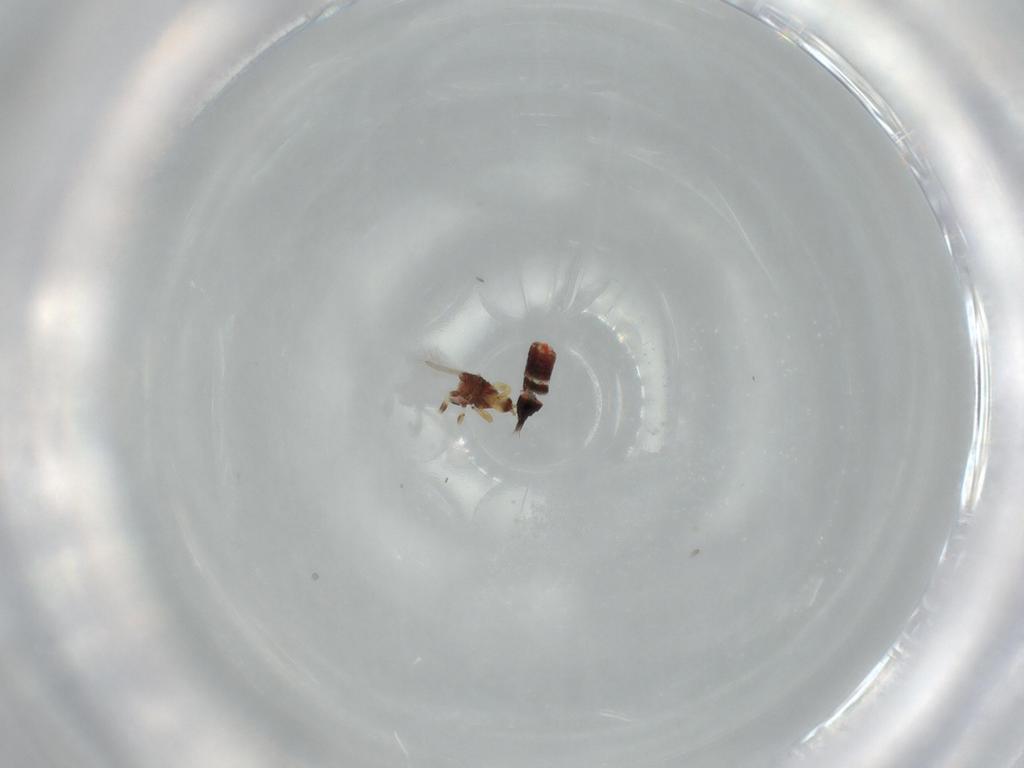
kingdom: Animalia
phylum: Arthropoda
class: Insecta
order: Thysanoptera
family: Phlaeothripidae
